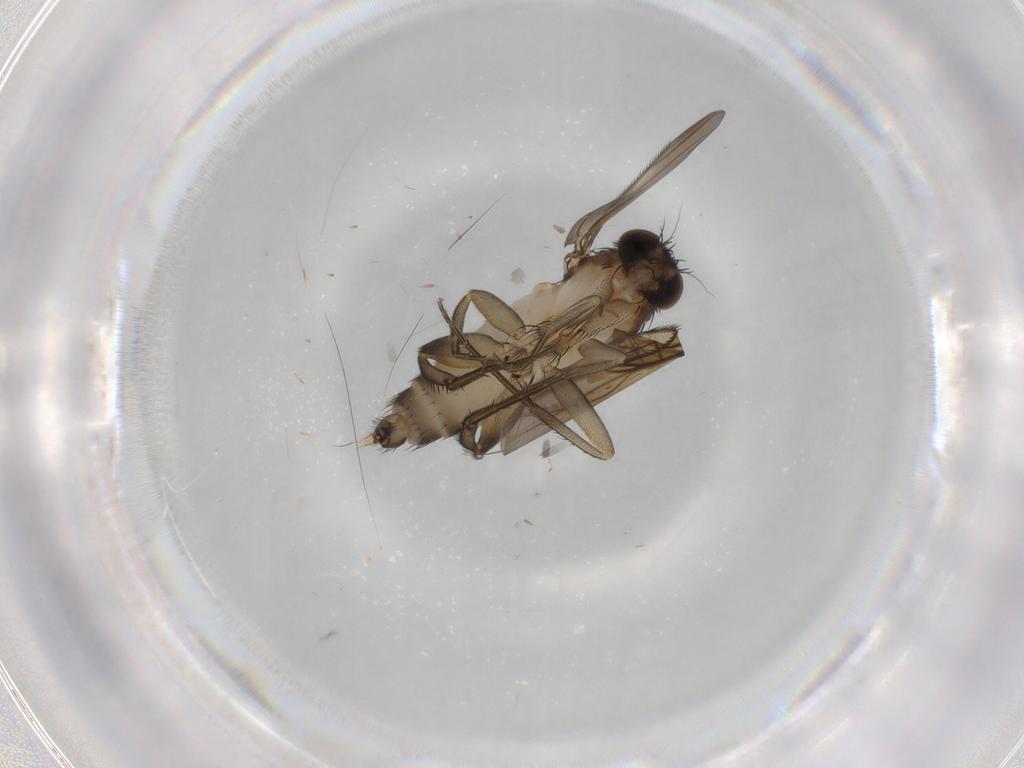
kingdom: Animalia
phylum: Arthropoda
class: Insecta
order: Diptera
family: Phoridae
